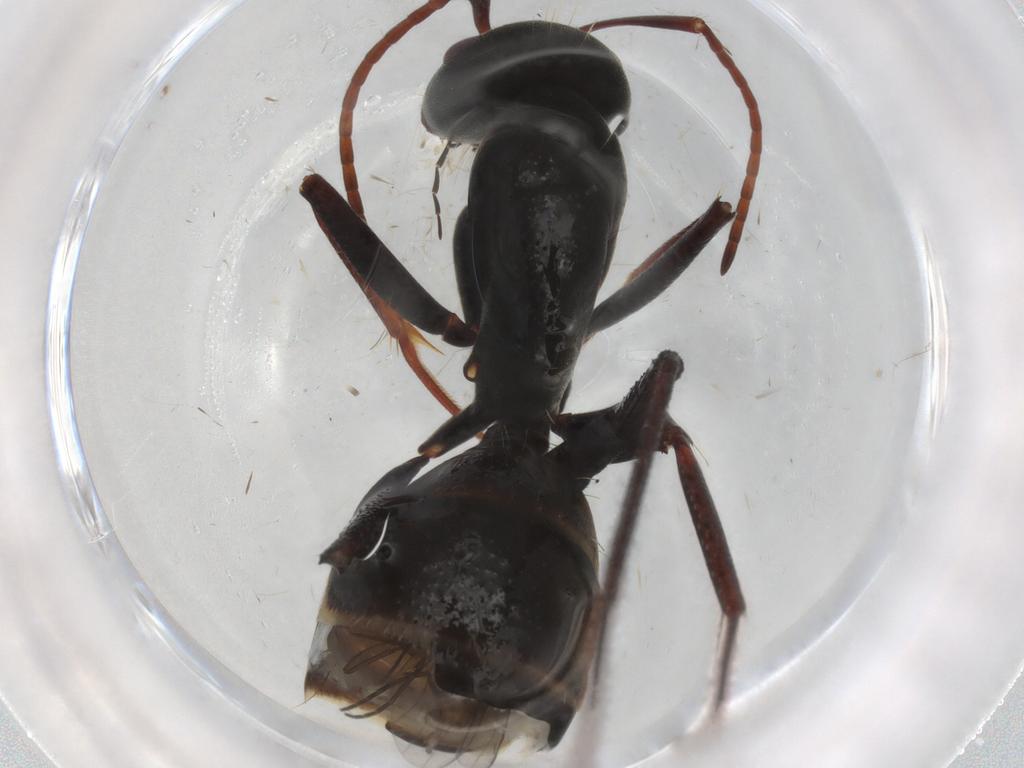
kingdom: Animalia
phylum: Arthropoda
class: Insecta
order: Hymenoptera
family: Formicidae
